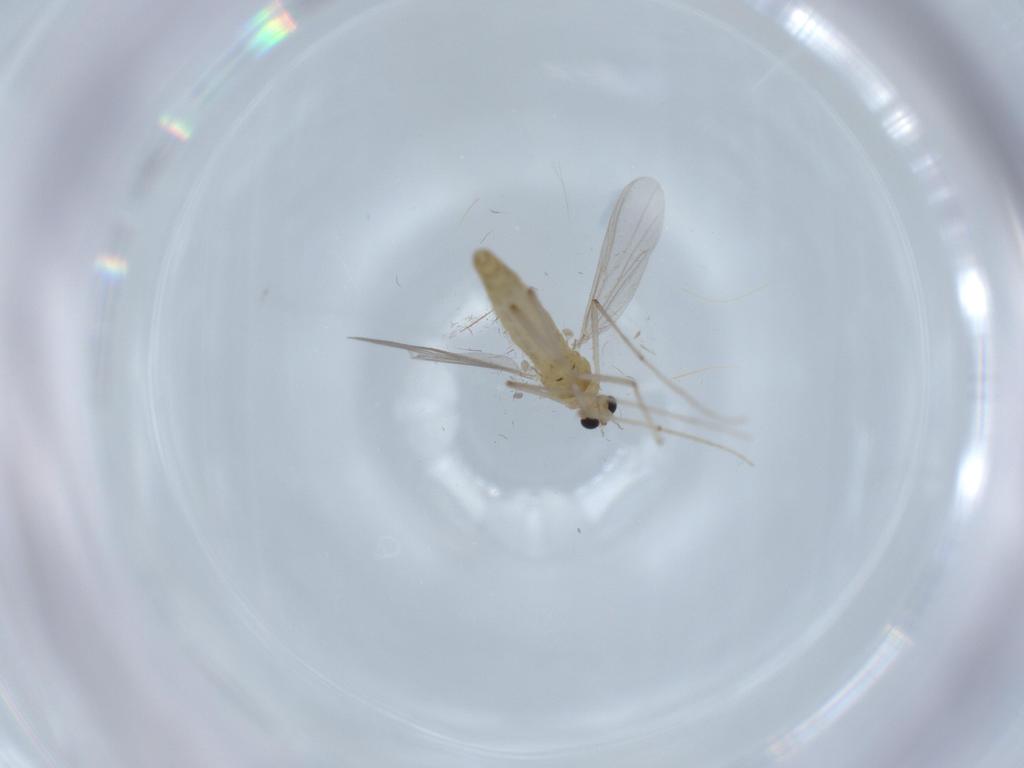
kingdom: Animalia
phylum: Arthropoda
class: Insecta
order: Diptera
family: Chironomidae
